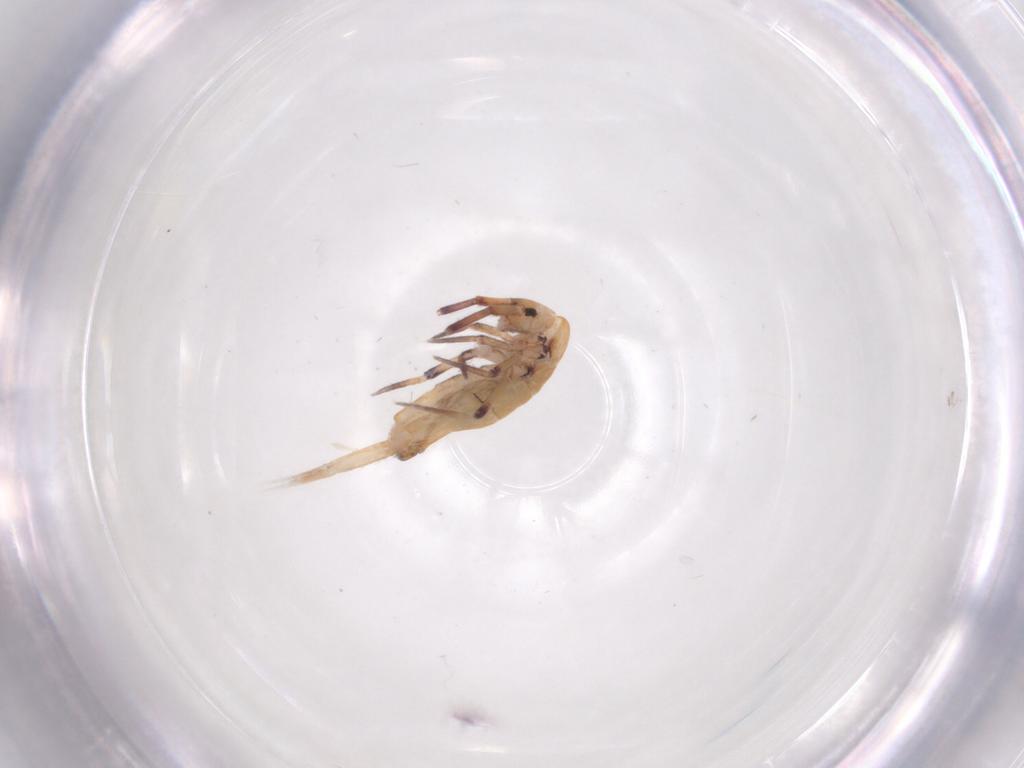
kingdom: Animalia
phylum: Arthropoda
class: Collembola
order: Entomobryomorpha
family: Entomobryidae
